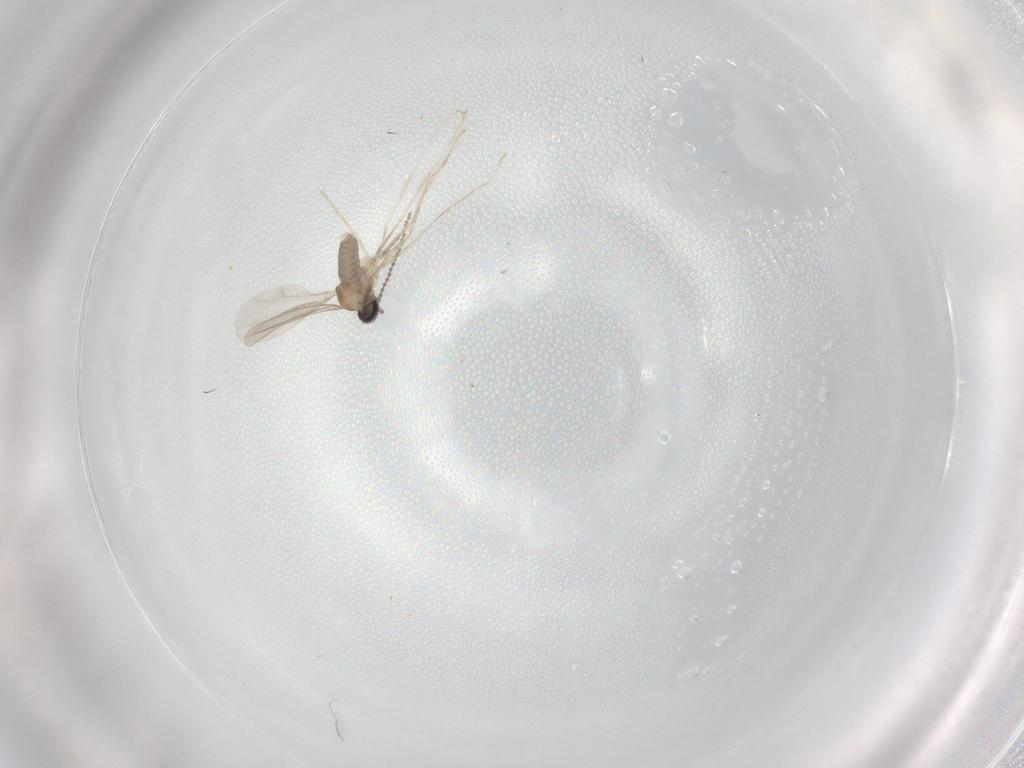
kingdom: Animalia
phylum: Arthropoda
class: Insecta
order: Diptera
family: Cecidomyiidae
